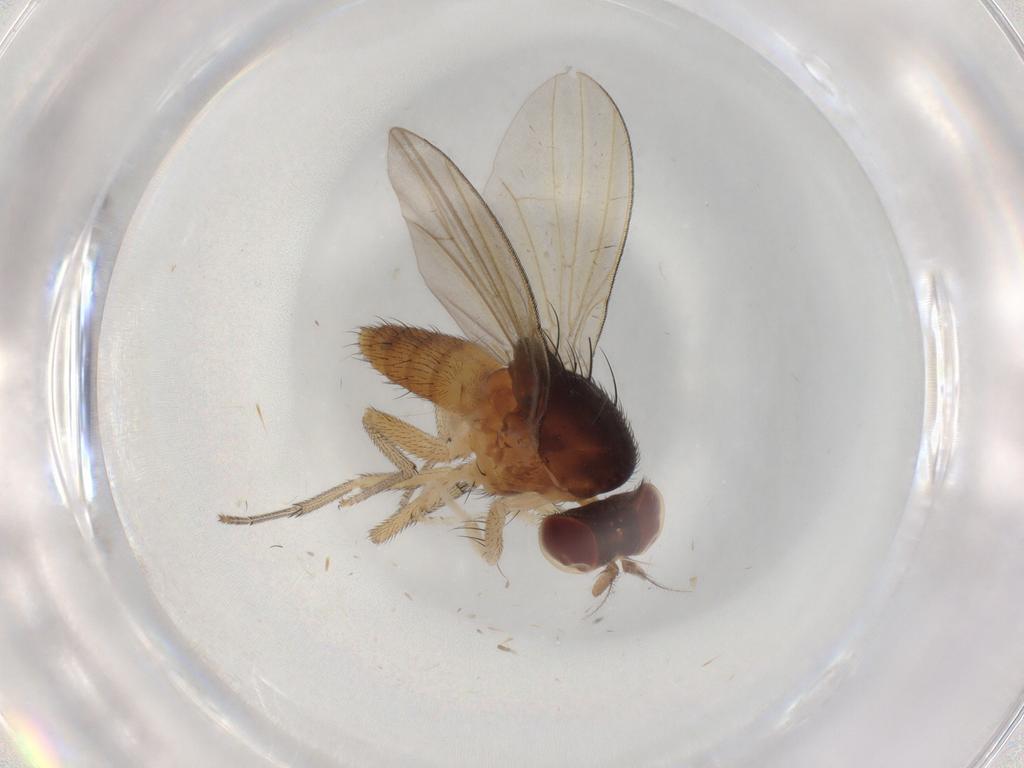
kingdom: Animalia
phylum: Arthropoda
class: Insecta
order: Diptera
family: Lauxaniidae
